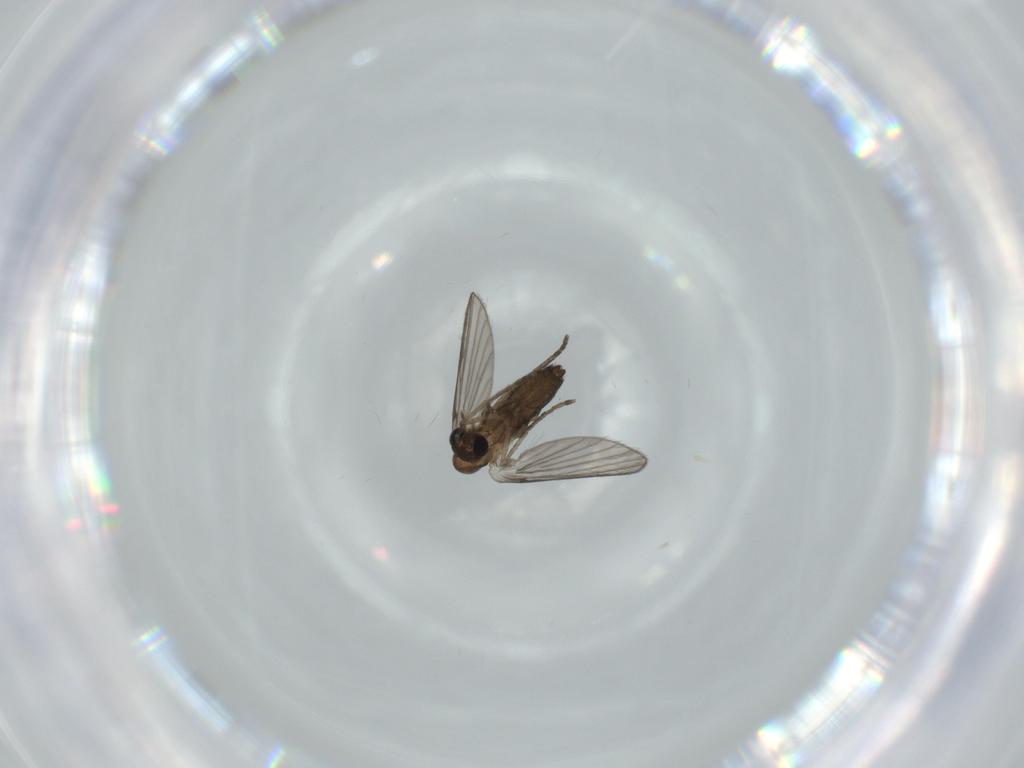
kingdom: Animalia
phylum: Arthropoda
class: Insecta
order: Diptera
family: Psychodidae
